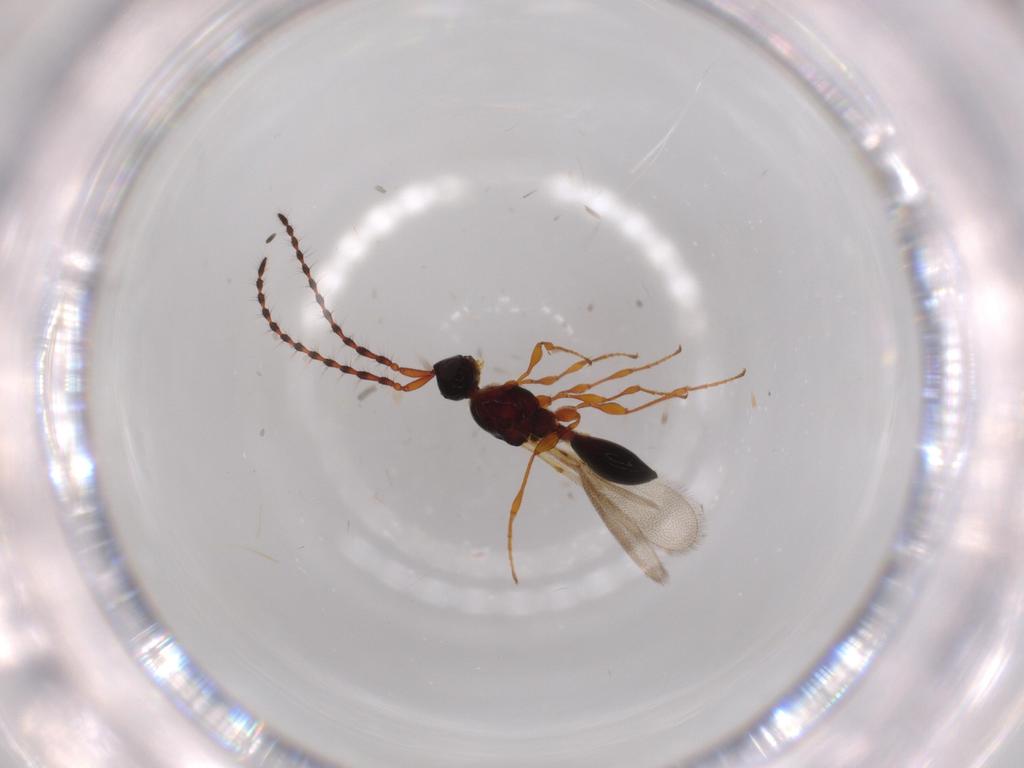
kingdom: Animalia
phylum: Arthropoda
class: Insecta
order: Hymenoptera
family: Diapriidae
